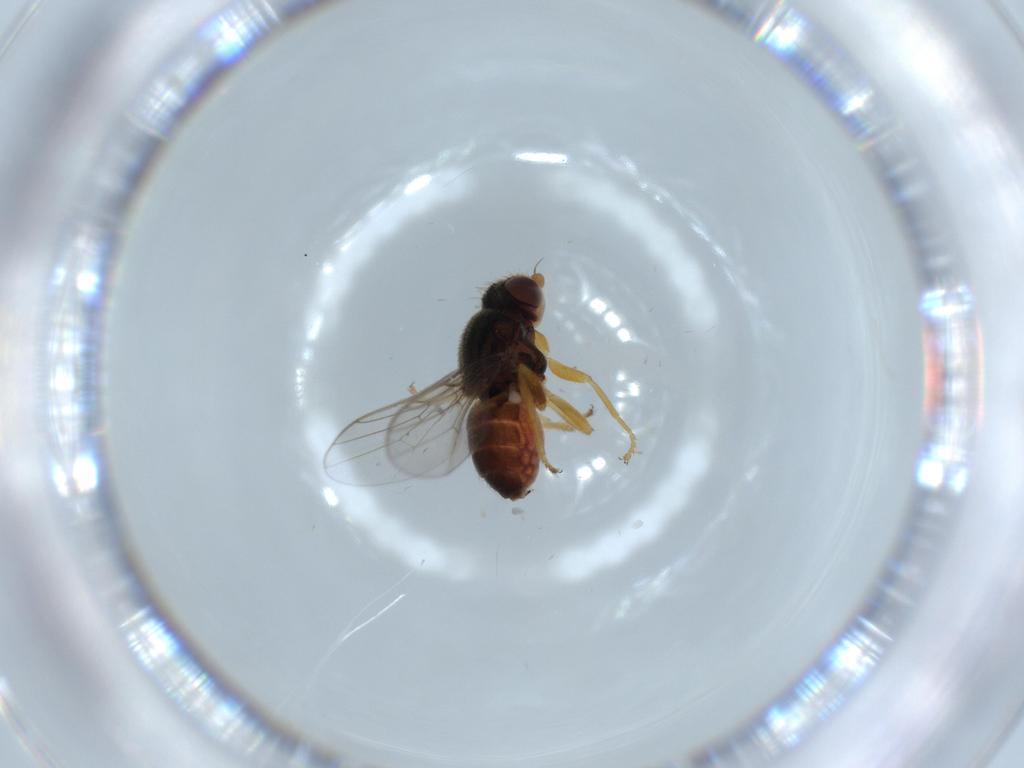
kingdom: Animalia
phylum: Arthropoda
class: Insecta
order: Diptera
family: Chloropidae
